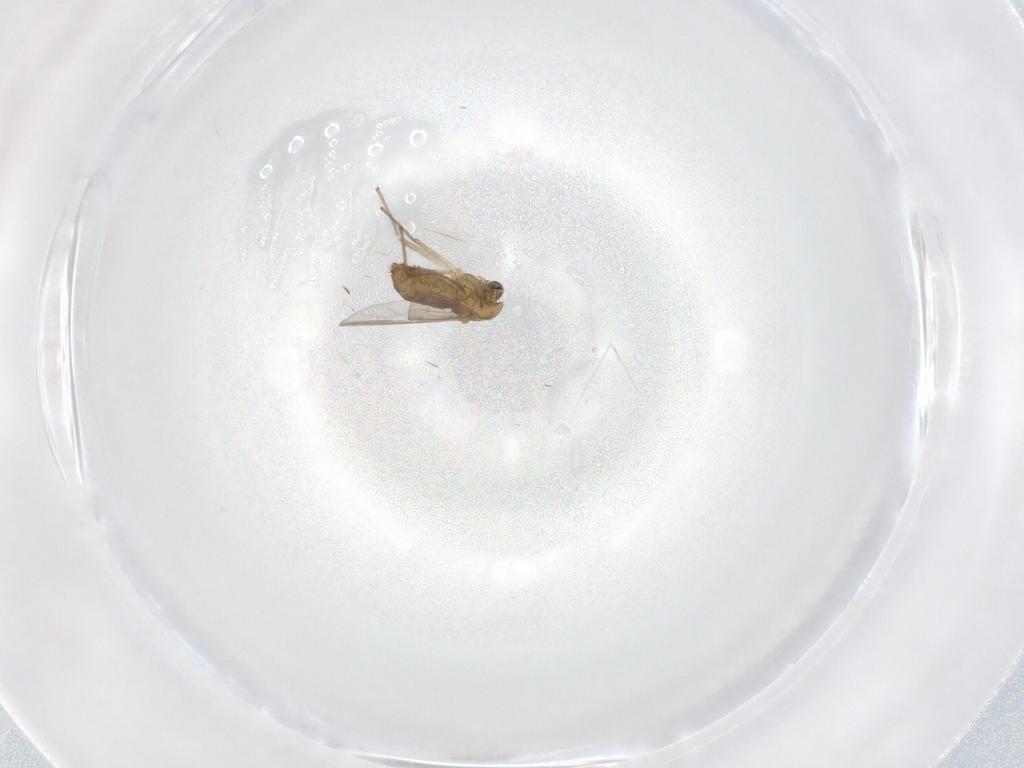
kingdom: Animalia
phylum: Arthropoda
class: Insecta
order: Diptera
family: Chironomidae
